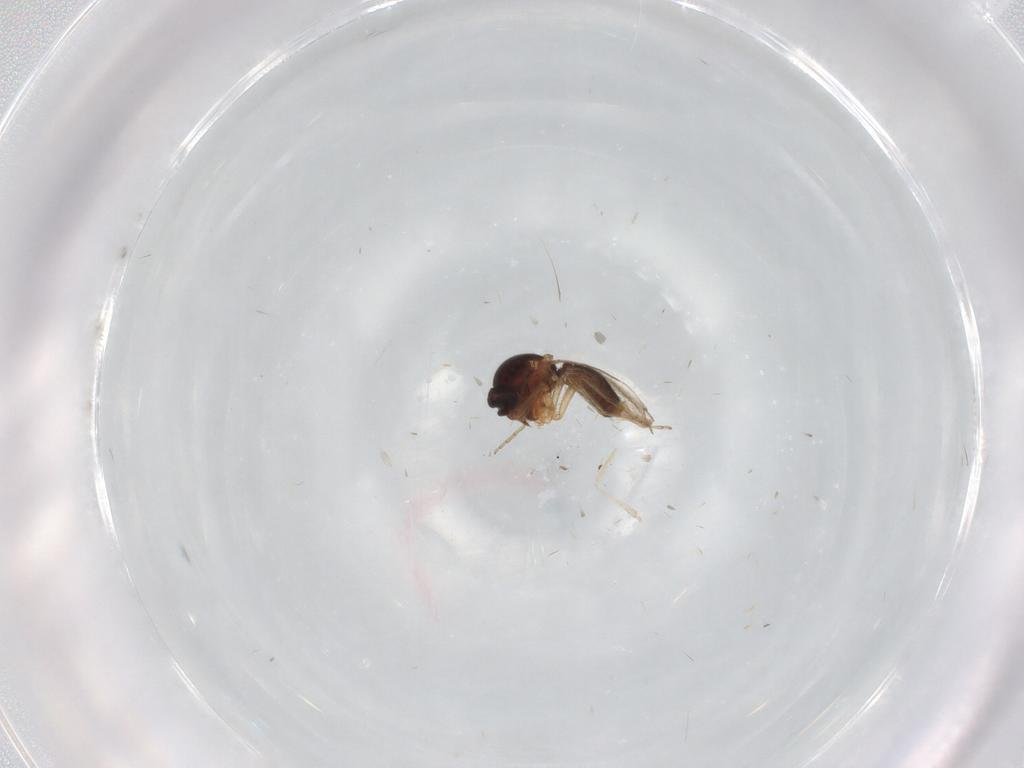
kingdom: Animalia
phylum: Arthropoda
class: Insecta
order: Diptera
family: Ceratopogonidae
